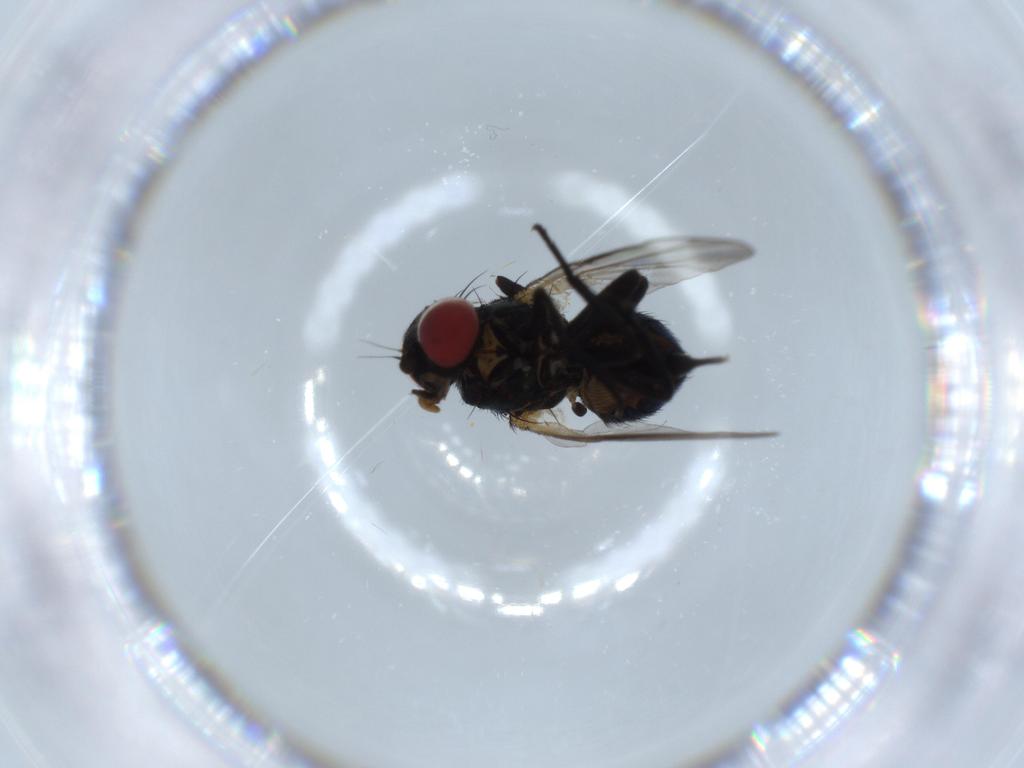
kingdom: Animalia
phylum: Arthropoda
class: Insecta
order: Diptera
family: Agromyzidae
